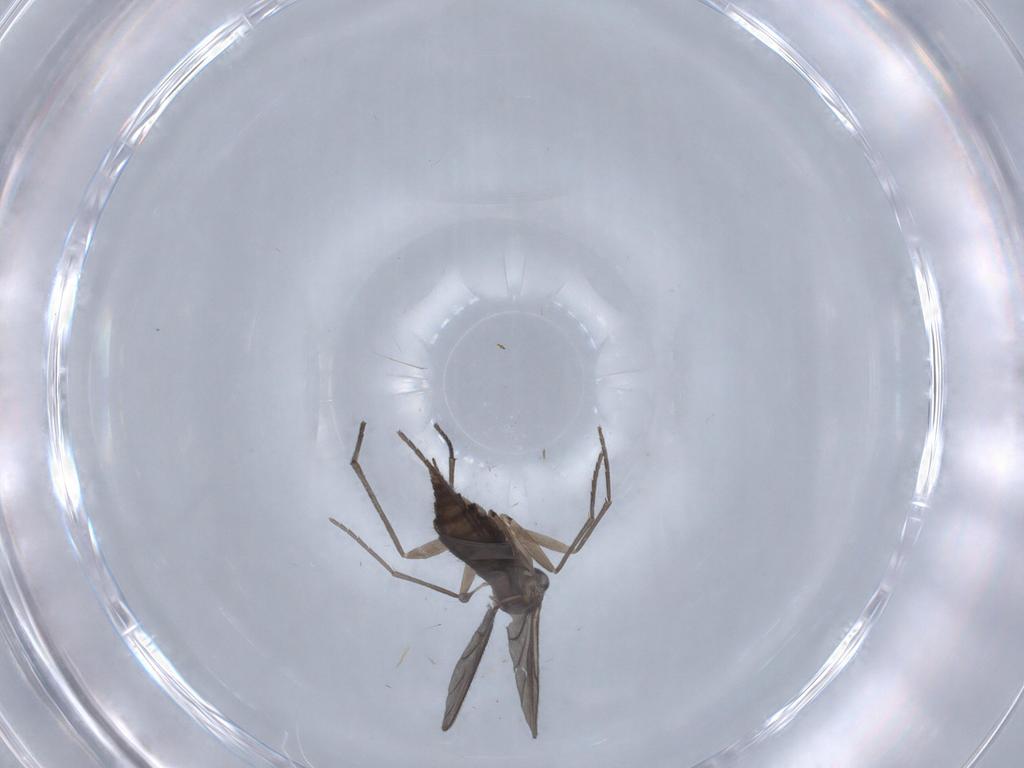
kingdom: Animalia
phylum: Arthropoda
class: Insecta
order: Diptera
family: Sciaridae
